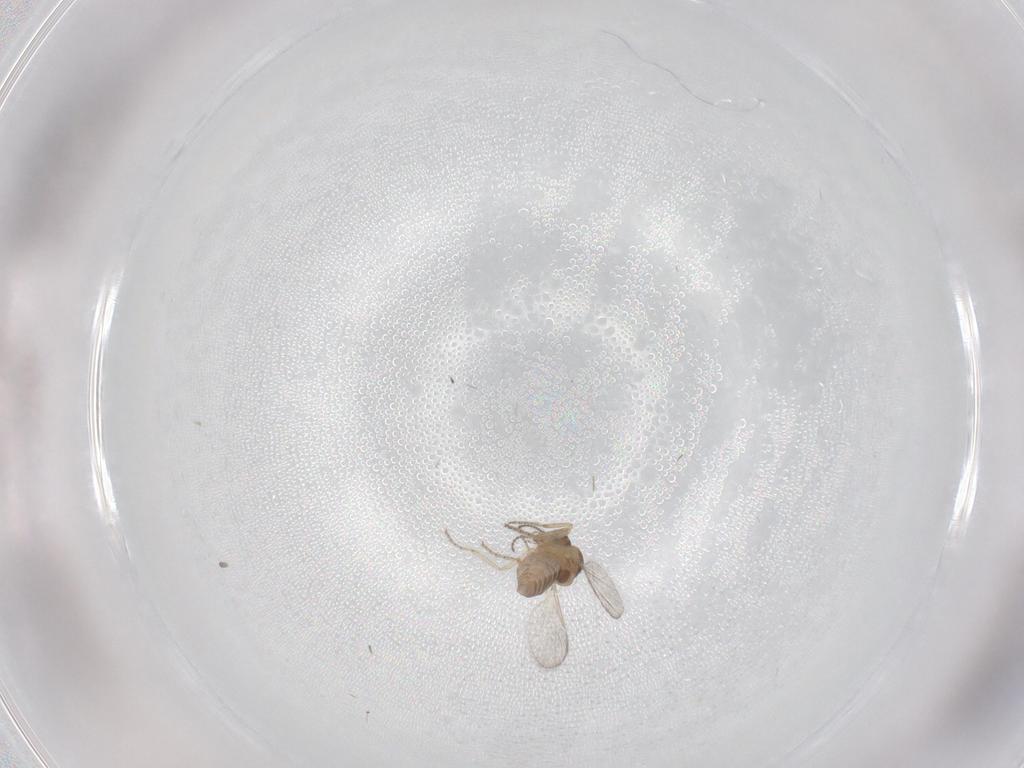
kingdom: Animalia
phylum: Arthropoda
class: Insecta
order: Diptera
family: Ceratopogonidae
